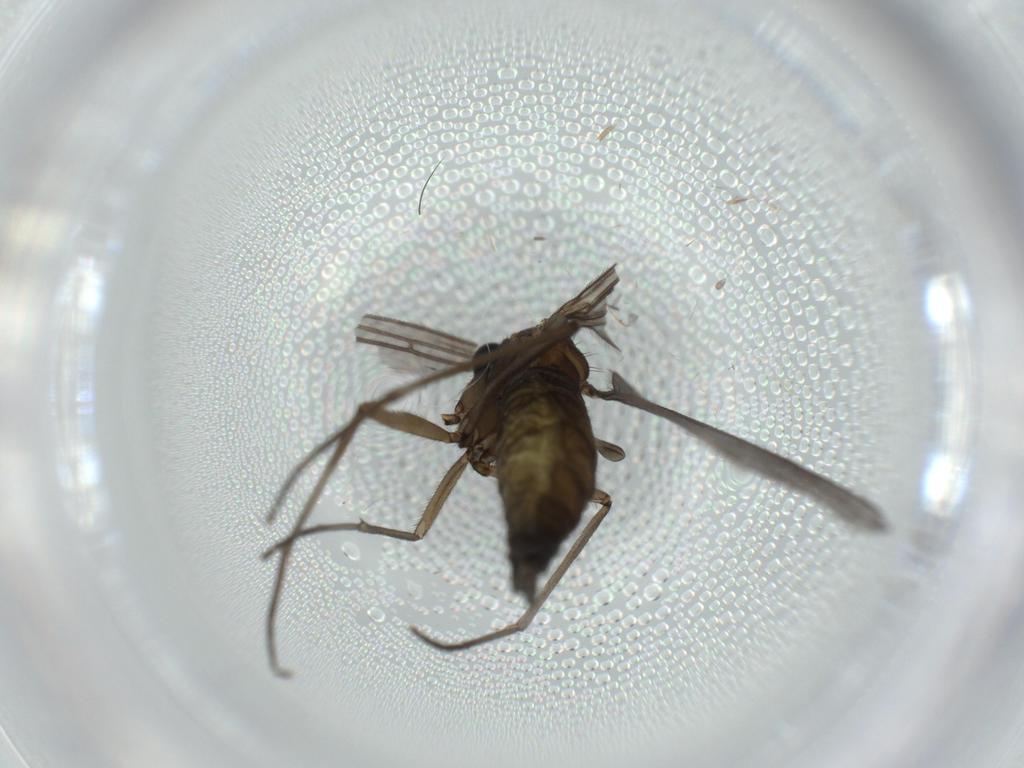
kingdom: Animalia
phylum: Arthropoda
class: Insecta
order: Diptera
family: Sciaridae
